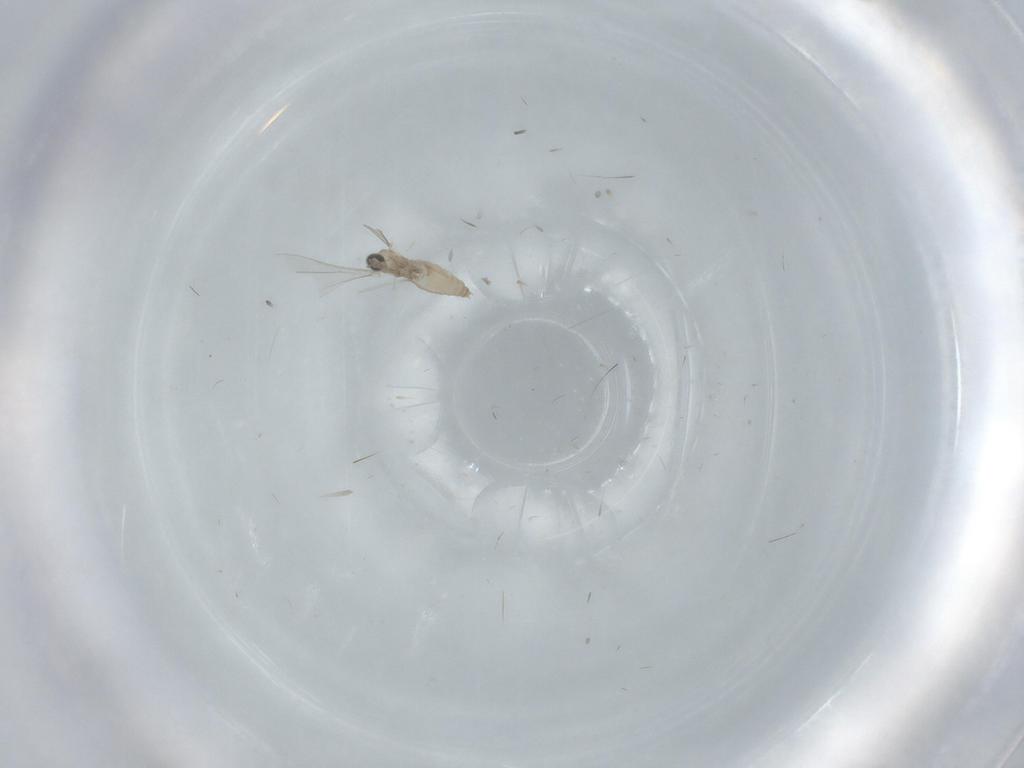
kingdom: Animalia
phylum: Arthropoda
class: Insecta
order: Diptera
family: Cecidomyiidae
